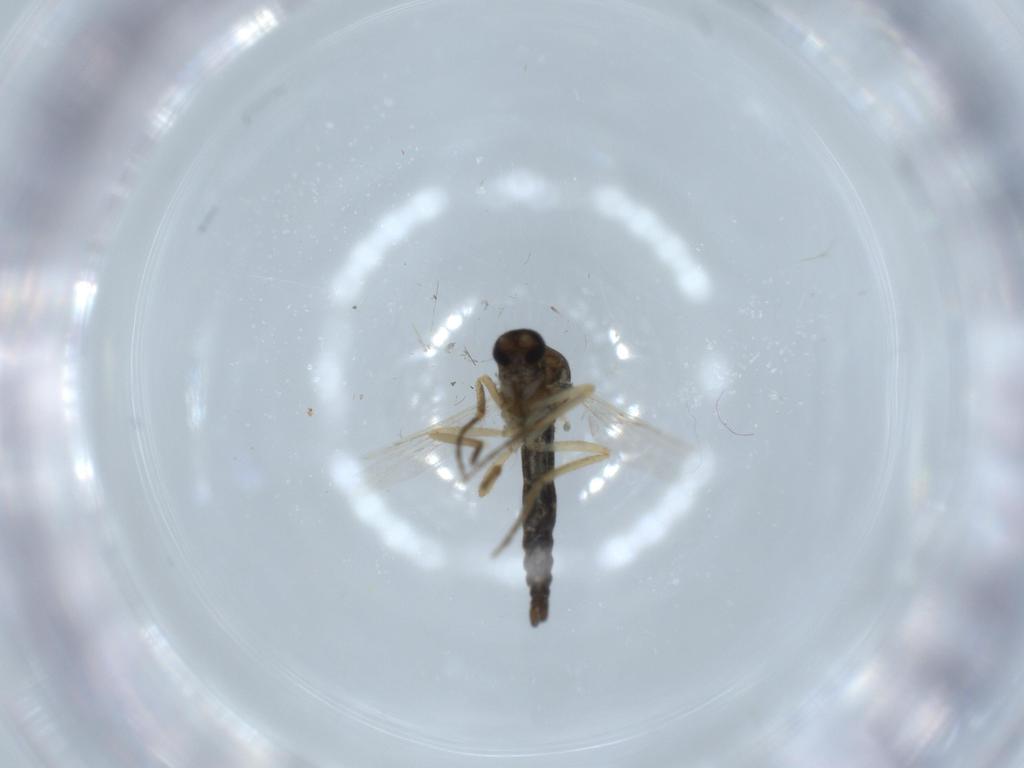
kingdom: Animalia
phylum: Arthropoda
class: Insecta
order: Diptera
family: Ceratopogonidae
